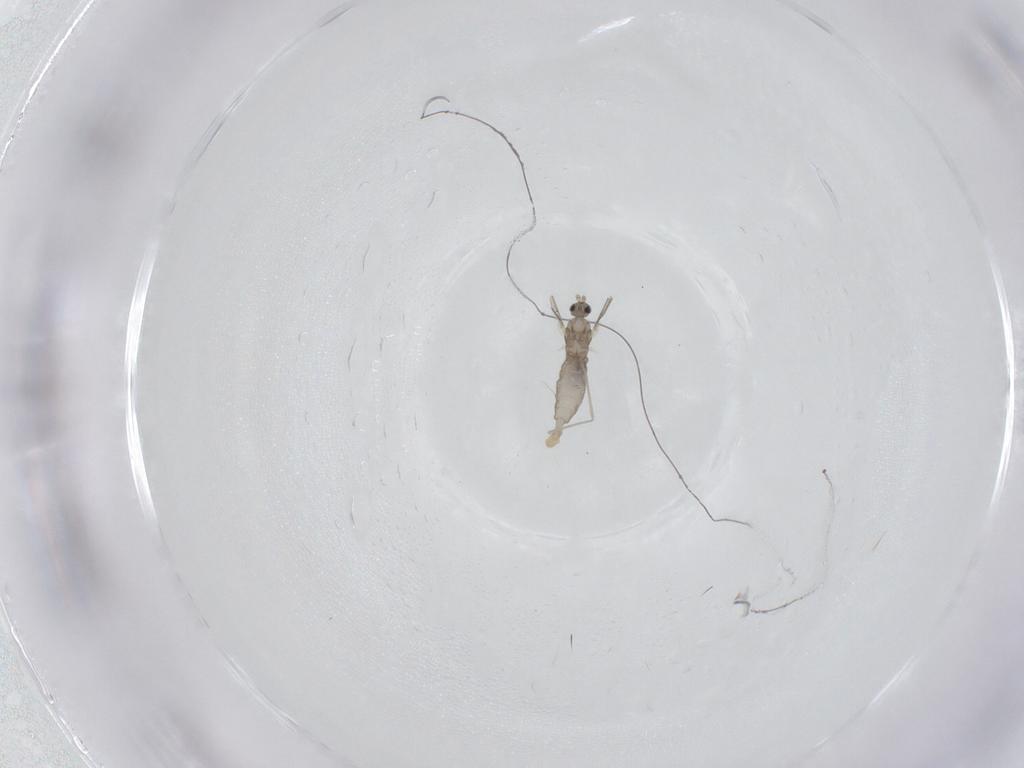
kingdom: Animalia
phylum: Arthropoda
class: Insecta
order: Diptera
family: Cecidomyiidae
